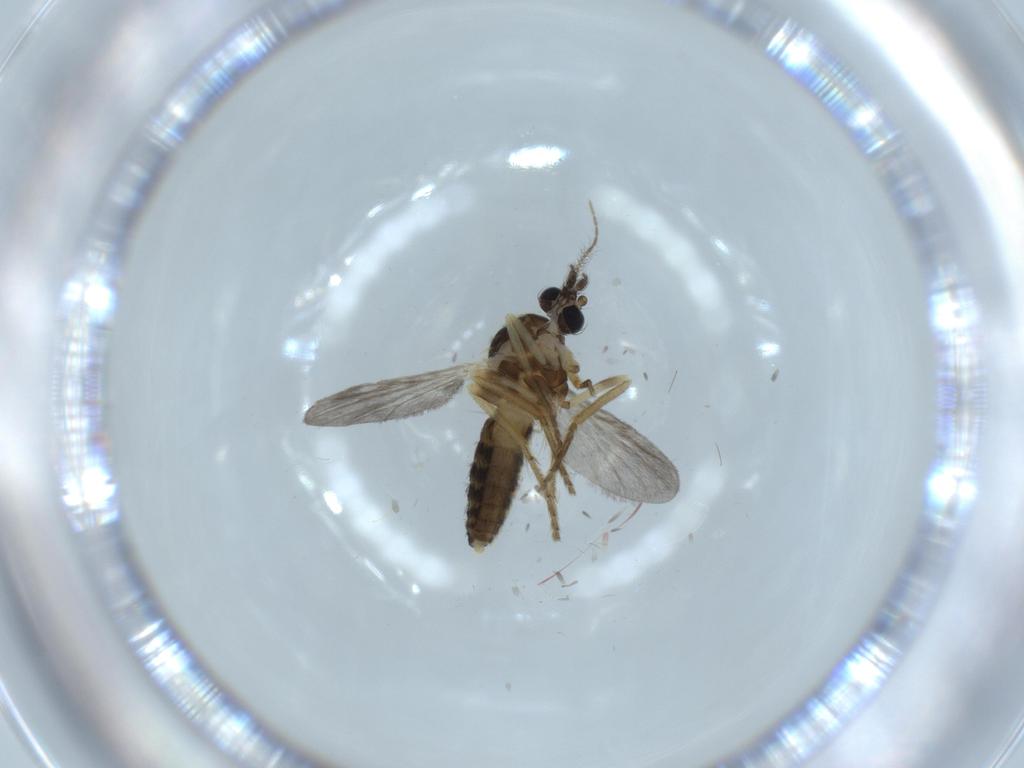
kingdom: Animalia
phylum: Arthropoda
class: Insecta
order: Diptera
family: Ceratopogonidae
